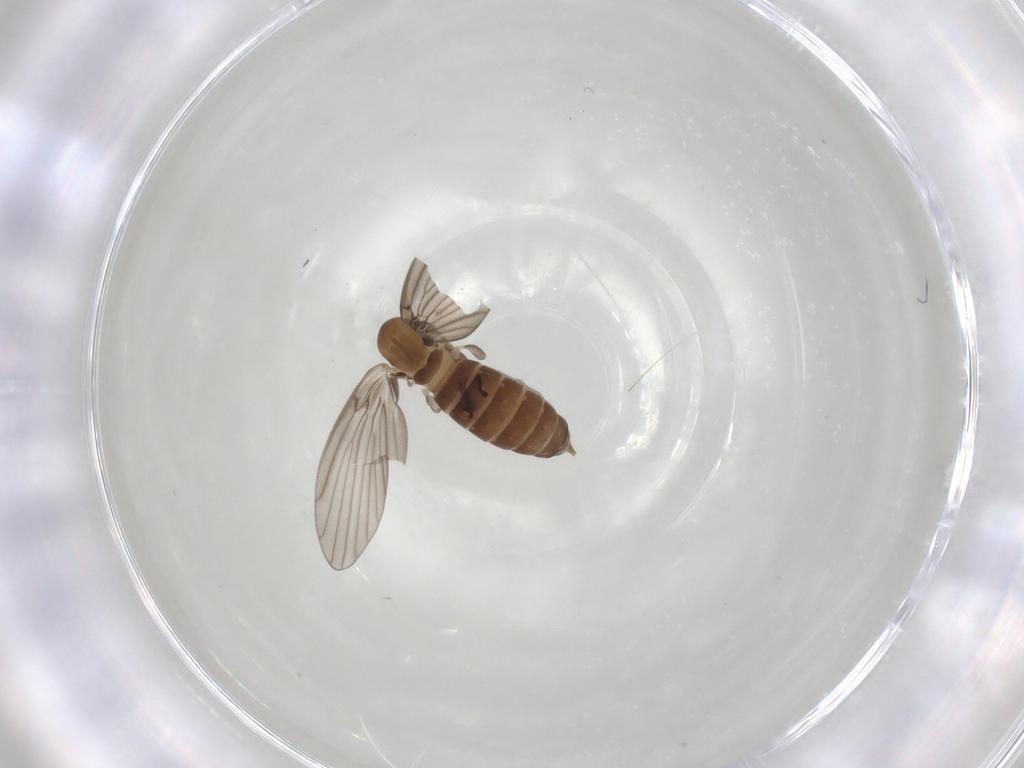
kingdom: Animalia
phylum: Arthropoda
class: Insecta
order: Diptera
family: Psychodidae
